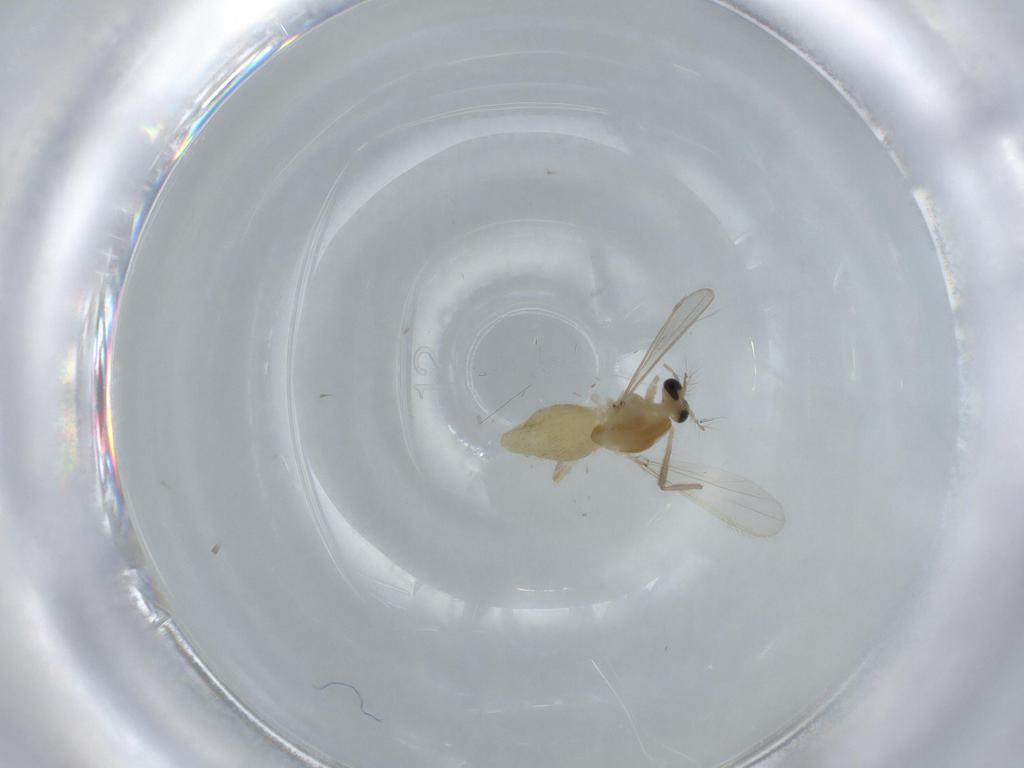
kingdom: Animalia
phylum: Arthropoda
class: Insecta
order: Diptera
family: Chironomidae
